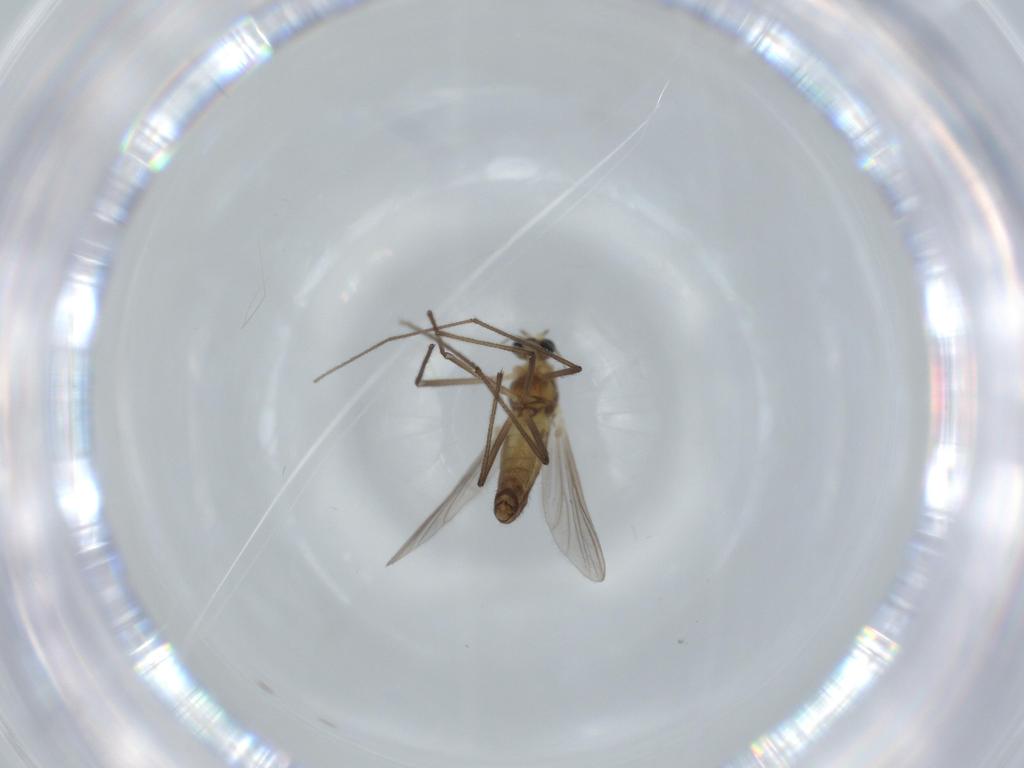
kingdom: Animalia
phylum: Arthropoda
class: Insecta
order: Diptera
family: Chironomidae
